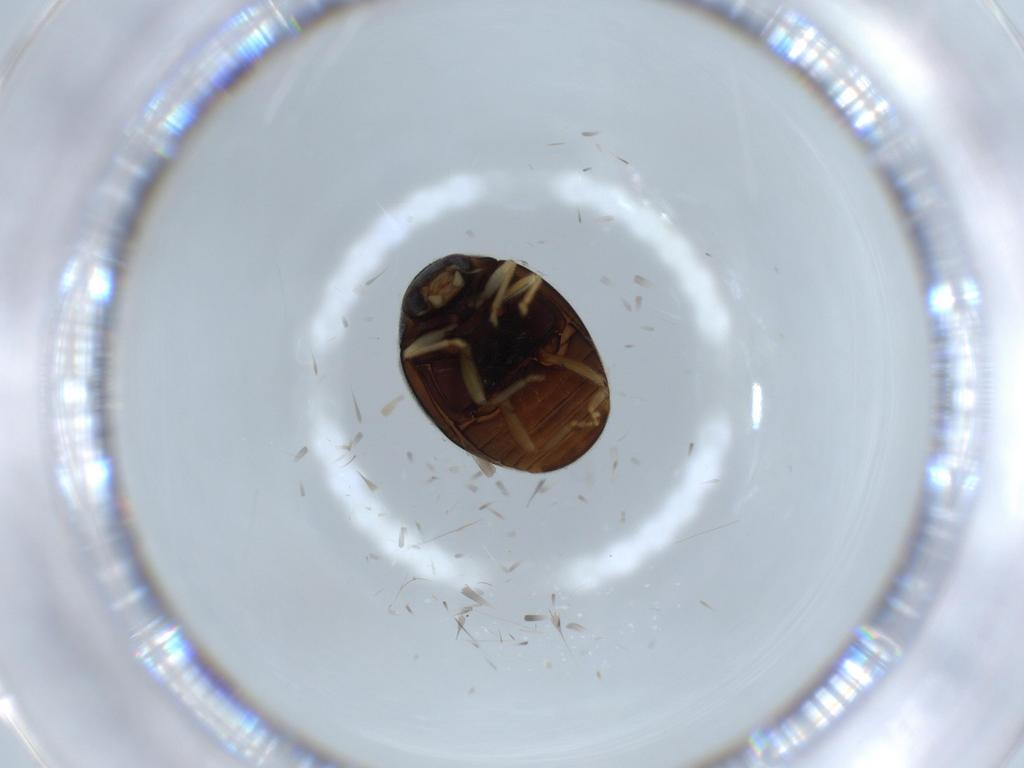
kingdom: Animalia
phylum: Arthropoda
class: Insecta
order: Coleoptera
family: Coccinellidae
